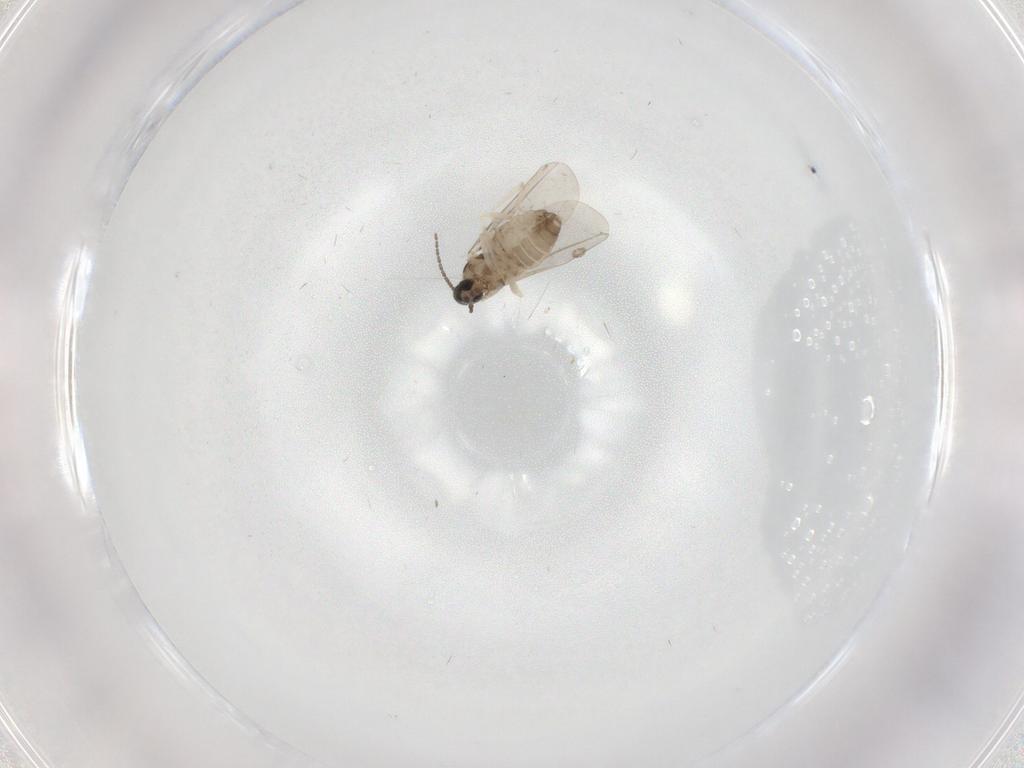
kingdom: Animalia
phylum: Arthropoda
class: Insecta
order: Diptera
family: Cecidomyiidae
